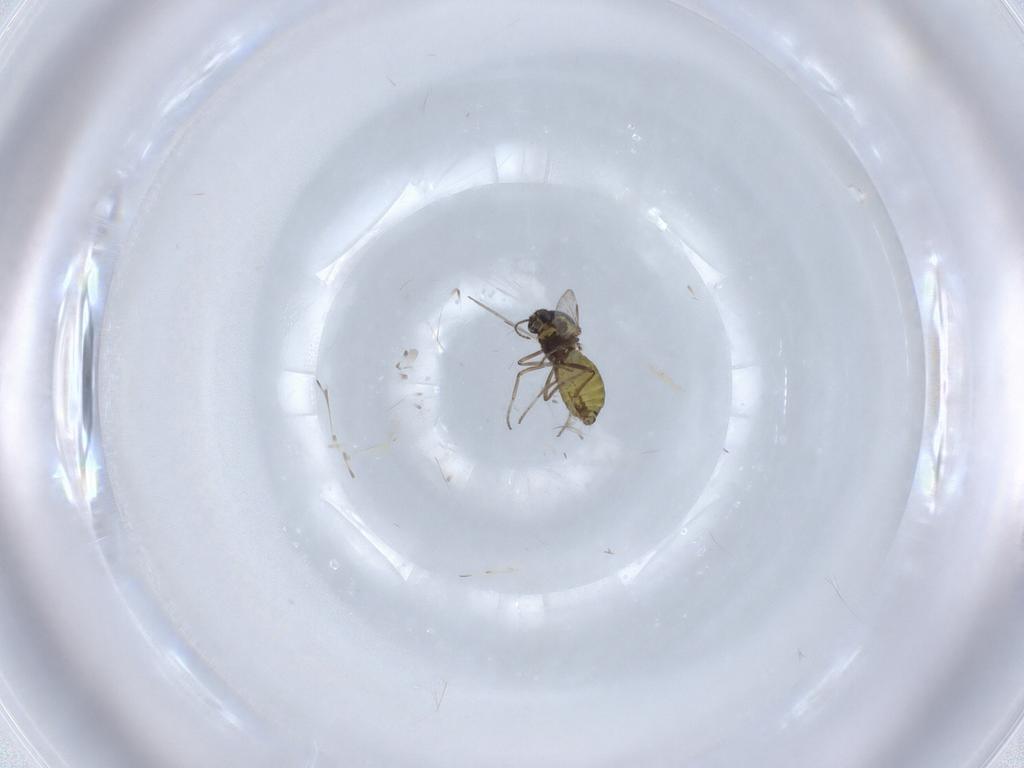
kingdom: Animalia
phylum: Arthropoda
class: Insecta
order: Diptera
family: Ceratopogonidae
